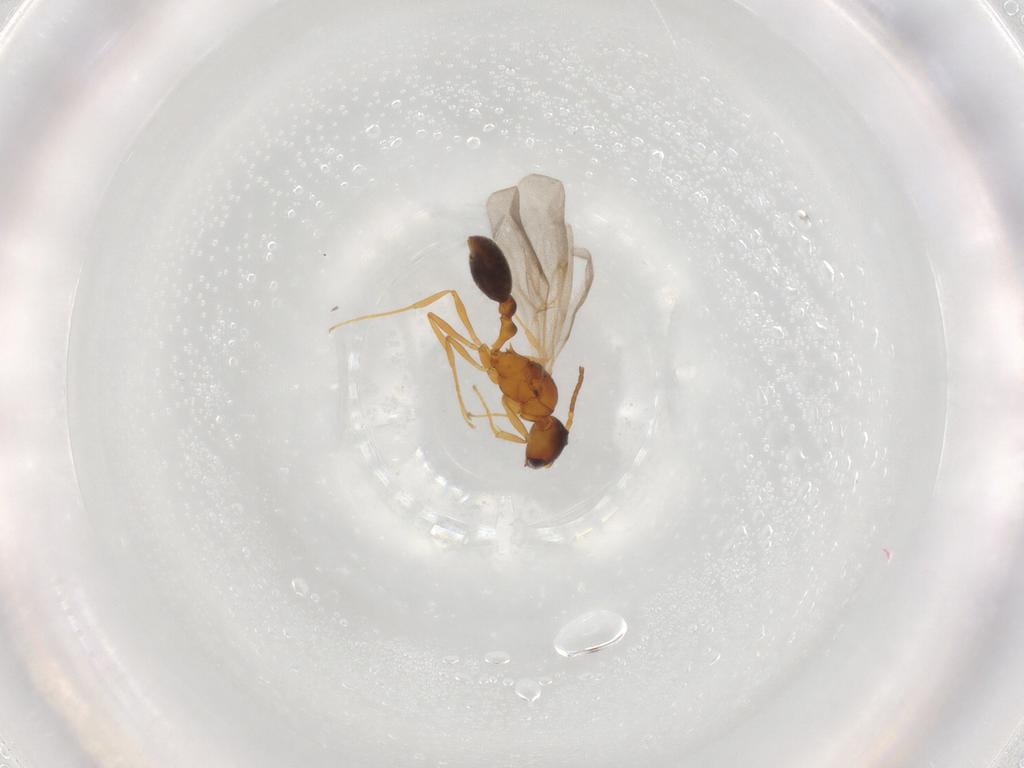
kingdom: Animalia
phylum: Arthropoda
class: Insecta
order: Hymenoptera
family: Formicidae
